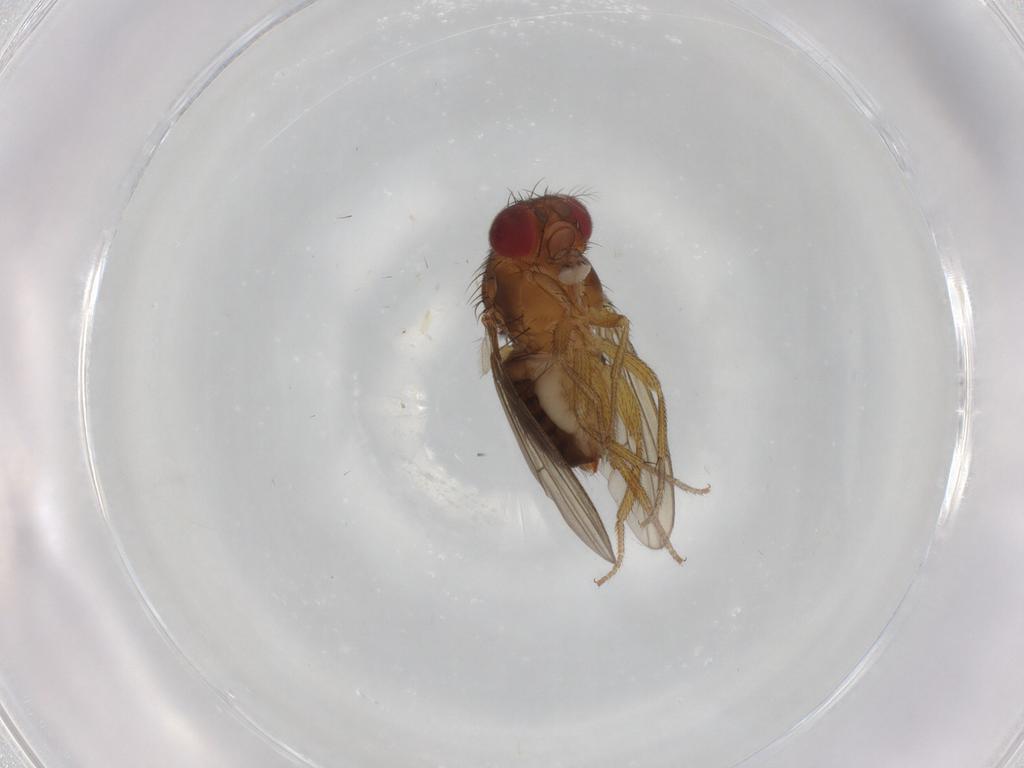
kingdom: Animalia
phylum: Arthropoda
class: Insecta
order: Diptera
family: Drosophilidae
